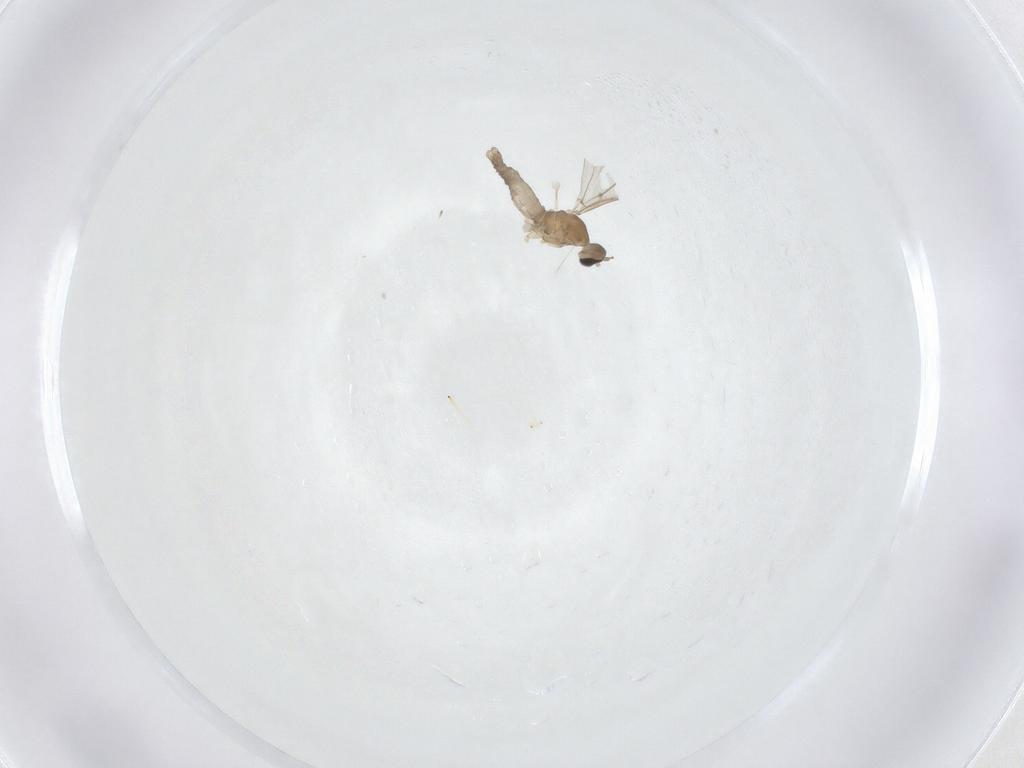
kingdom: Animalia
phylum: Arthropoda
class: Insecta
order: Diptera
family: Cecidomyiidae
